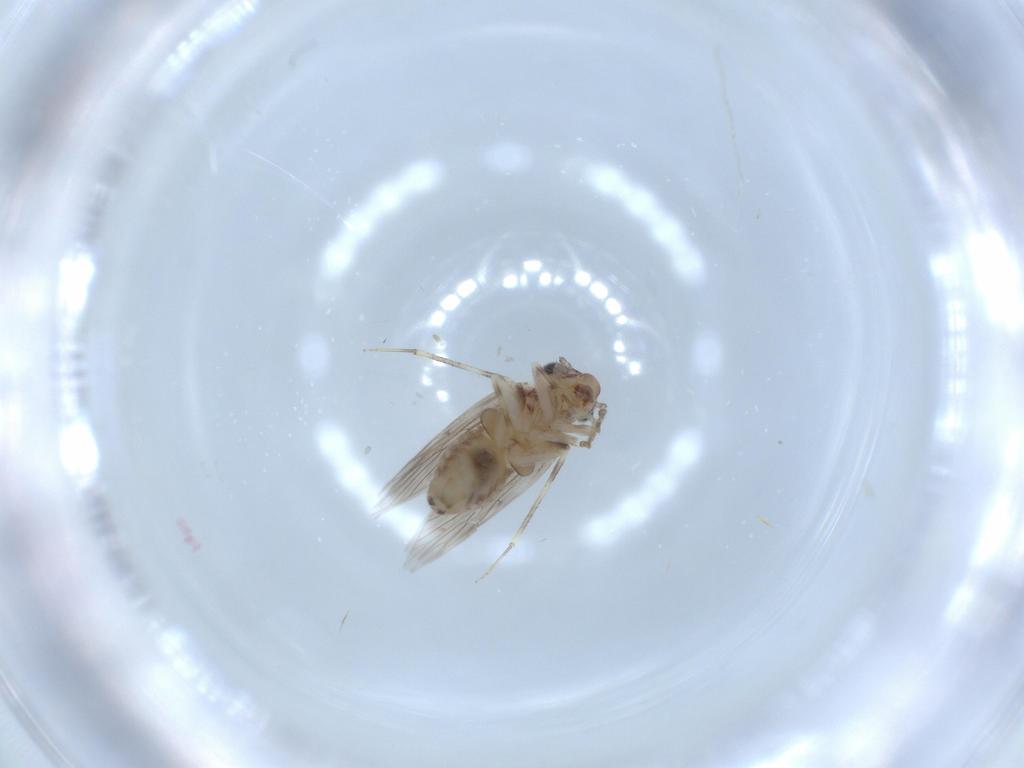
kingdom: Animalia
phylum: Arthropoda
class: Insecta
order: Psocodea
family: Lepidopsocidae
